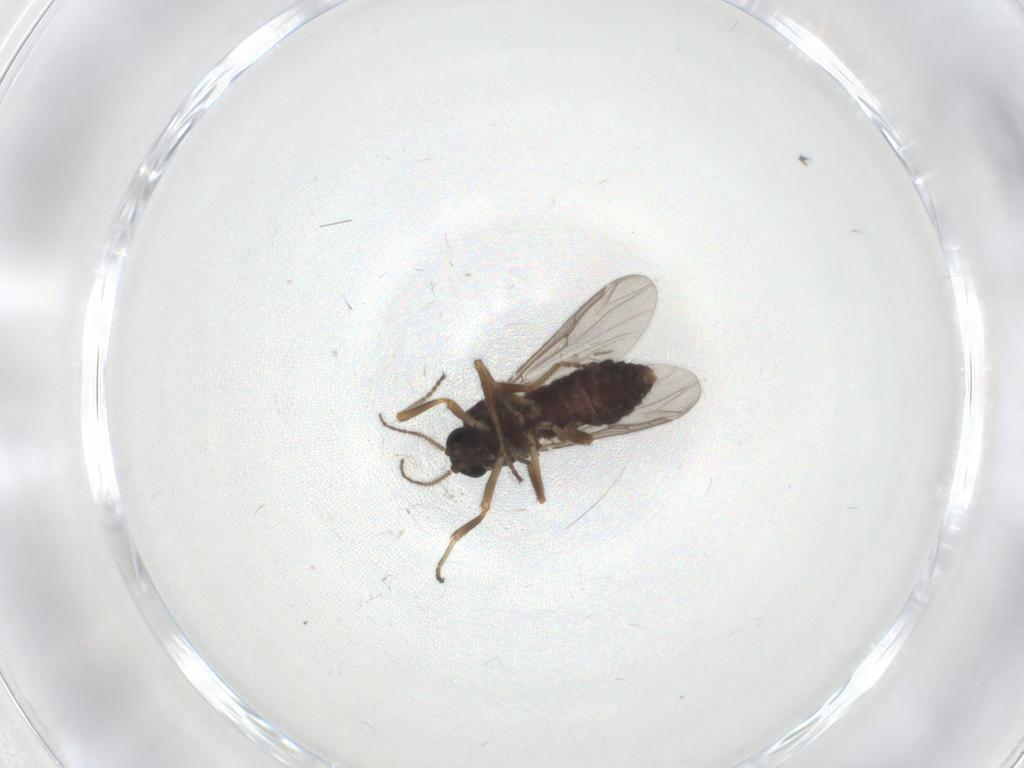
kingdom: Animalia
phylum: Arthropoda
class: Insecta
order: Diptera
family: Ceratopogonidae
